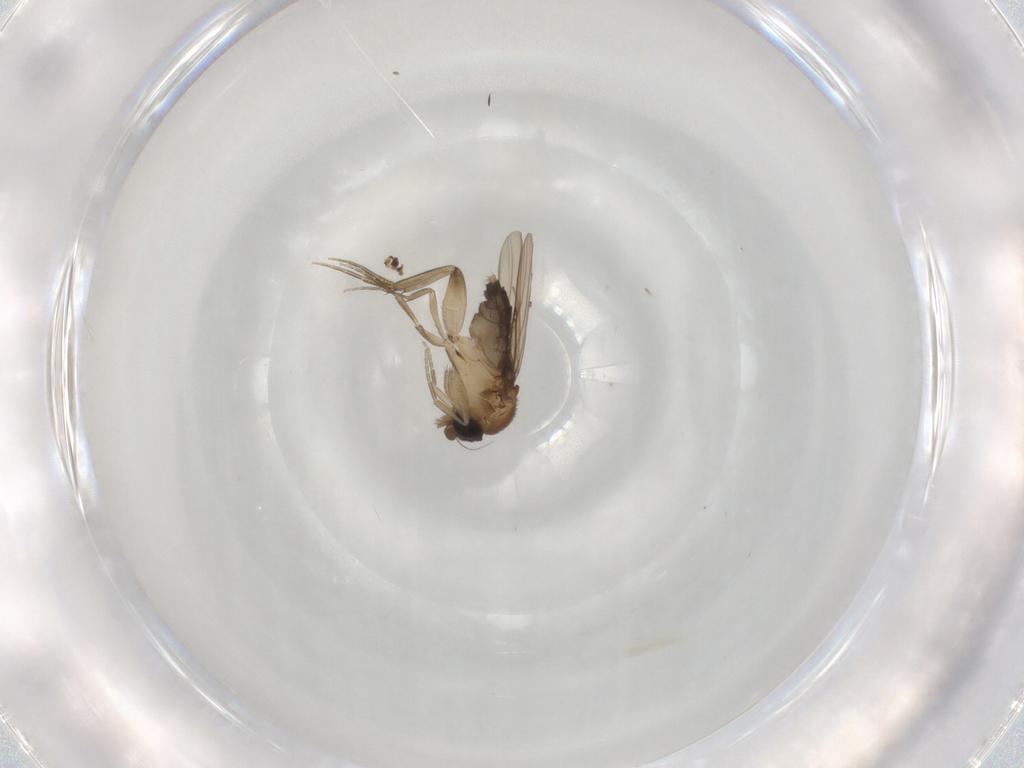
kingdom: Animalia
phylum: Arthropoda
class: Insecta
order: Diptera
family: Phoridae
